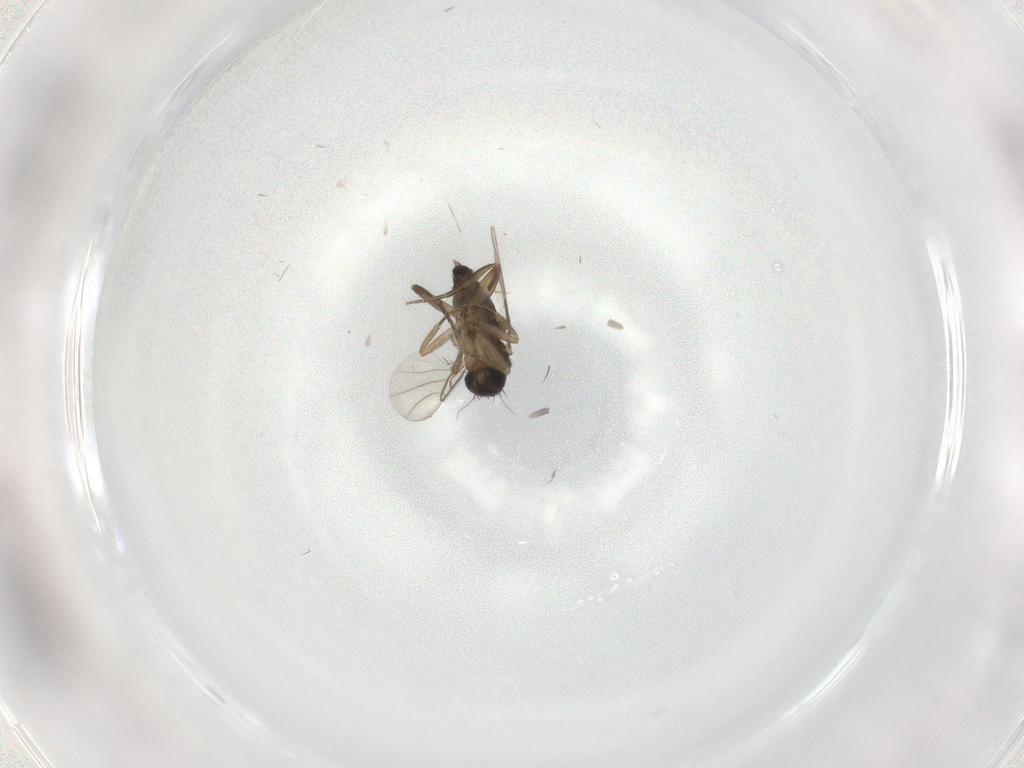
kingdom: Animalia
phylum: Arthropoda
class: Insecta
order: Diptera
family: Phoridae
